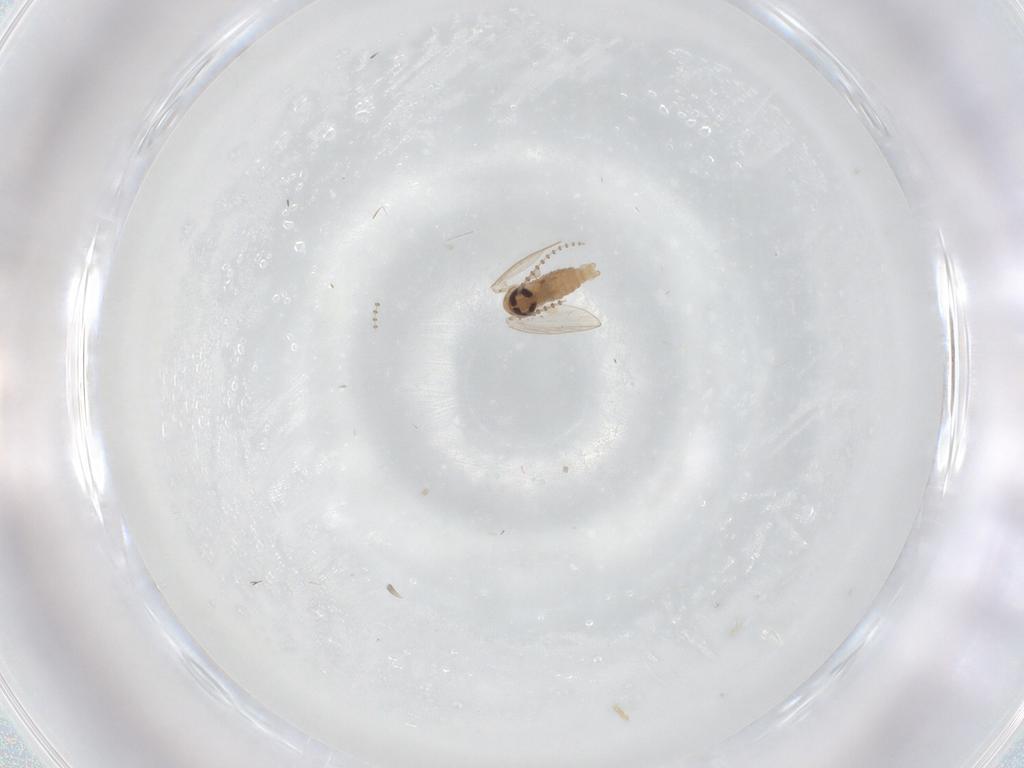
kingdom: Animalia
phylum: Arthropoda
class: Insecta
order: Diptera
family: Psychodidae
